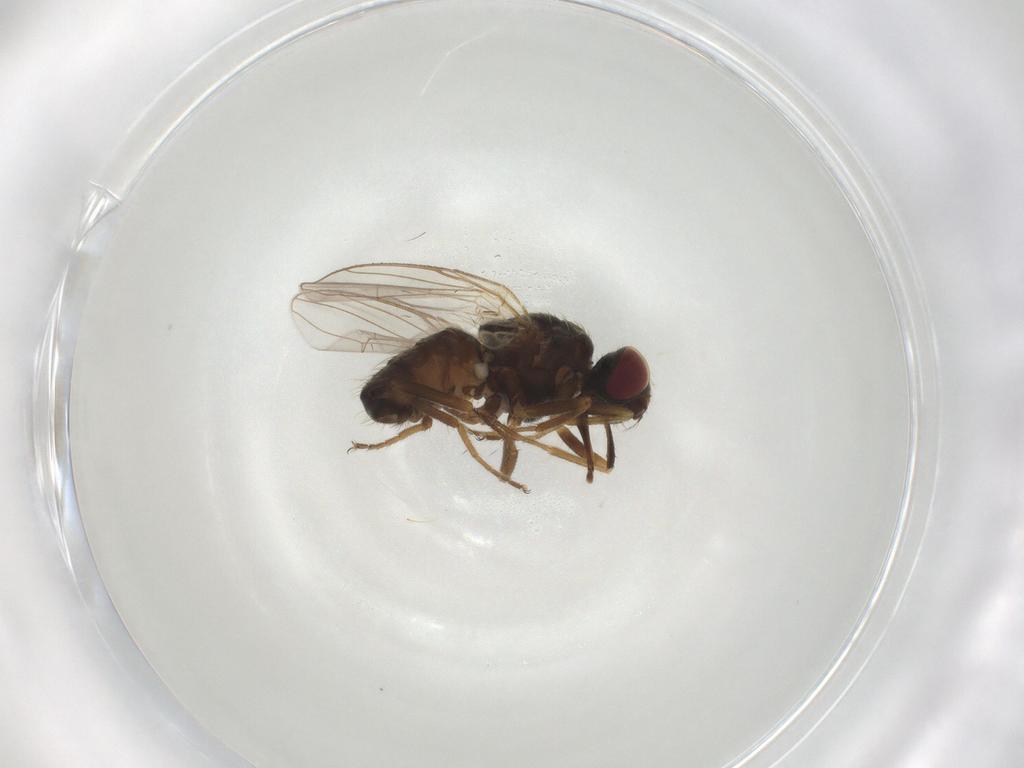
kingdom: Animalia
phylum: Arthropoda
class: Insecta
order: Diptera
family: Muscidae
